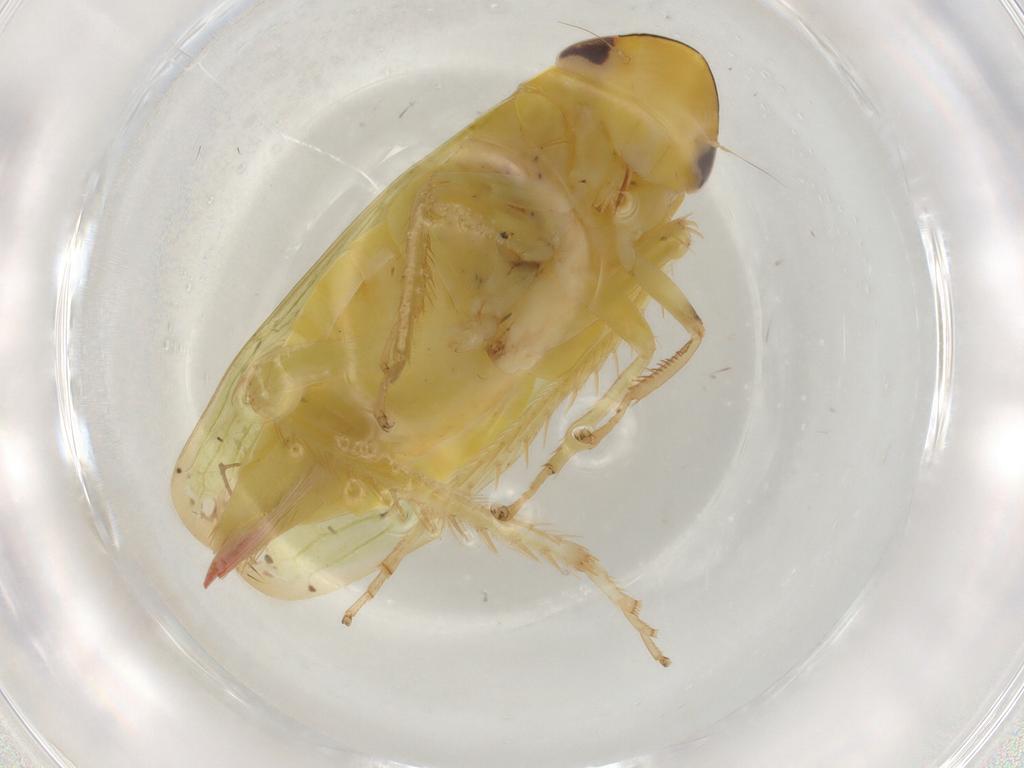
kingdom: Animalia
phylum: Arthropoda
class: Insecta
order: Hemiptera
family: Cicadellidae
